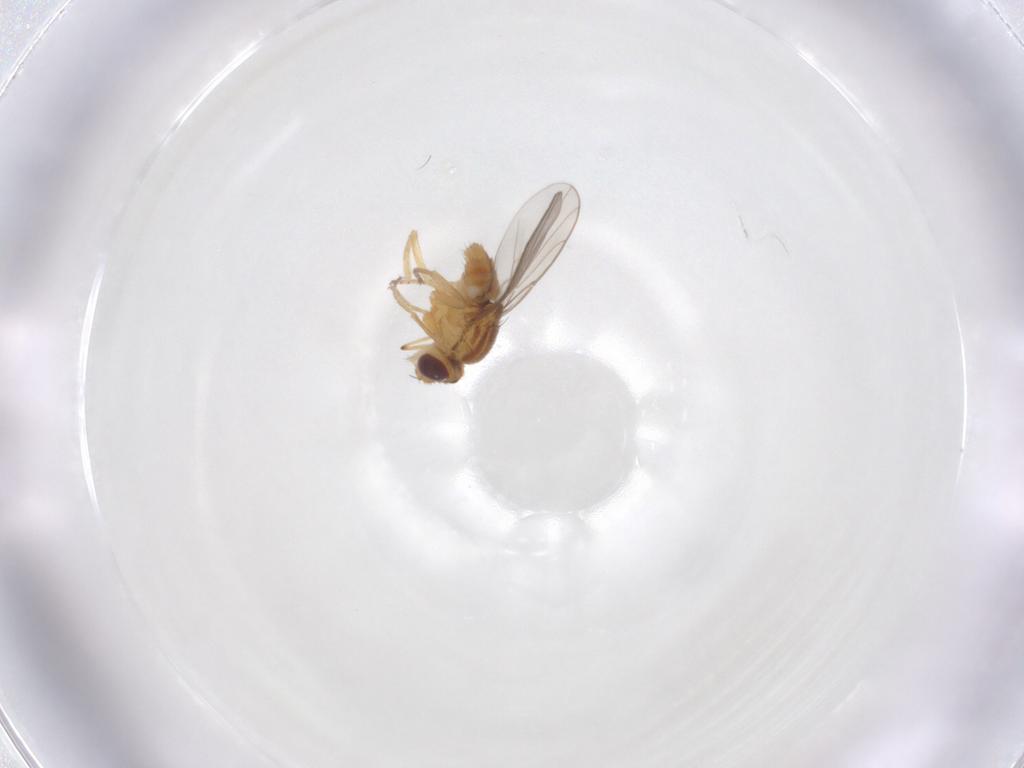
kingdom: Animalia
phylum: Arthropoda
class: Insecta
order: Diptera
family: Chloropidae
